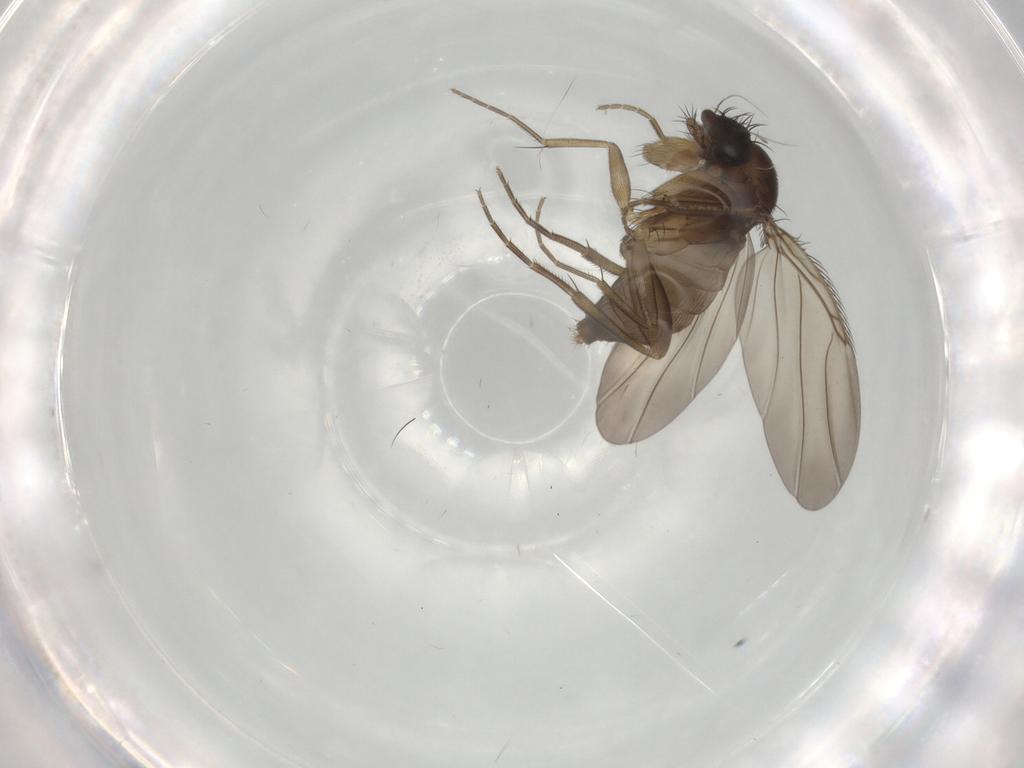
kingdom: Animalia
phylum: Arthropoda
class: Insecta
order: Diptera
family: Phoridae
